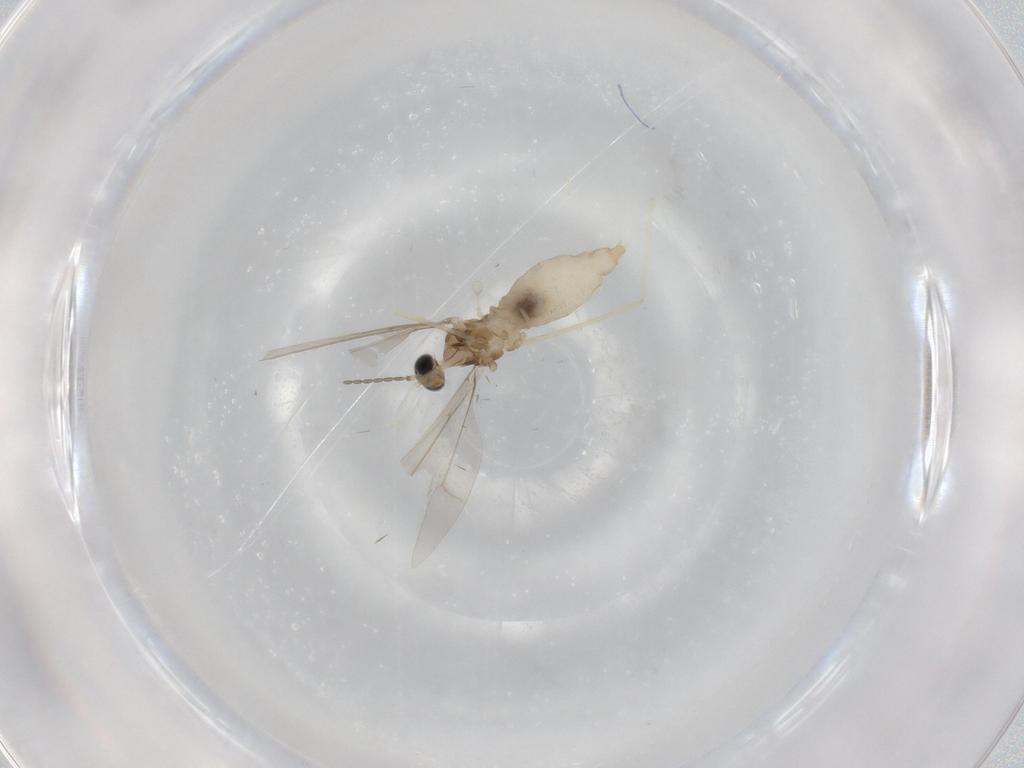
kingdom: Animalia
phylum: Arthropoda
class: Insecta
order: Diptera
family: Cecidomyiidae
